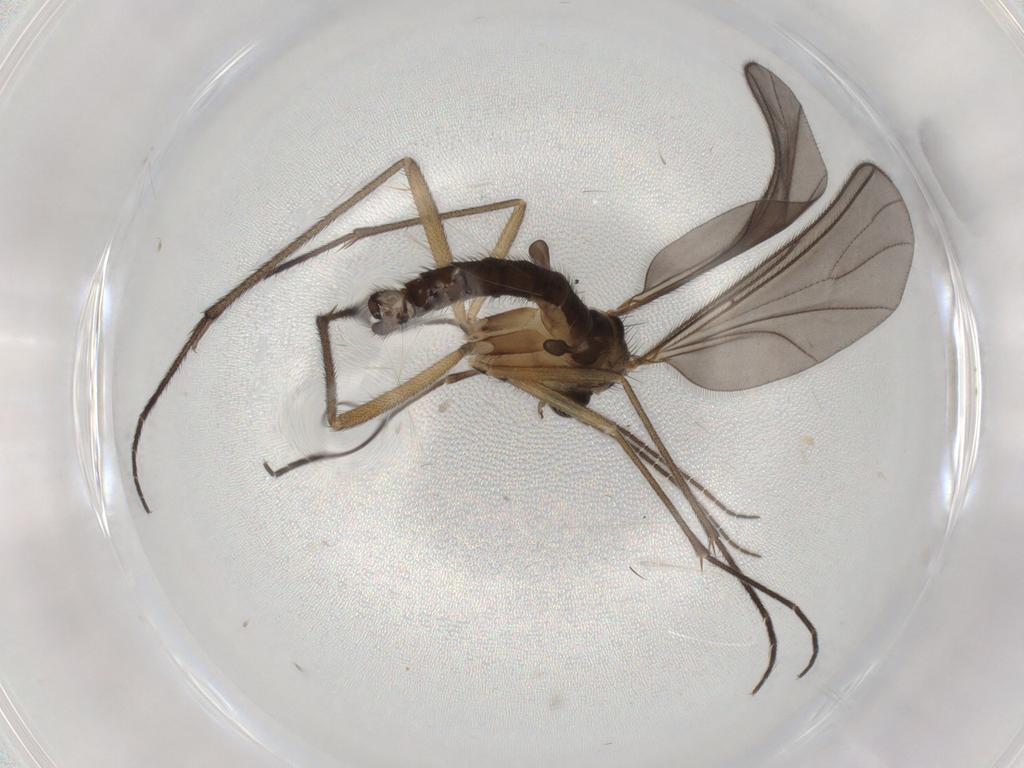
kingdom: Animalia
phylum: Arthropoda
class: Insecta
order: Diptera
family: Sciaridae
